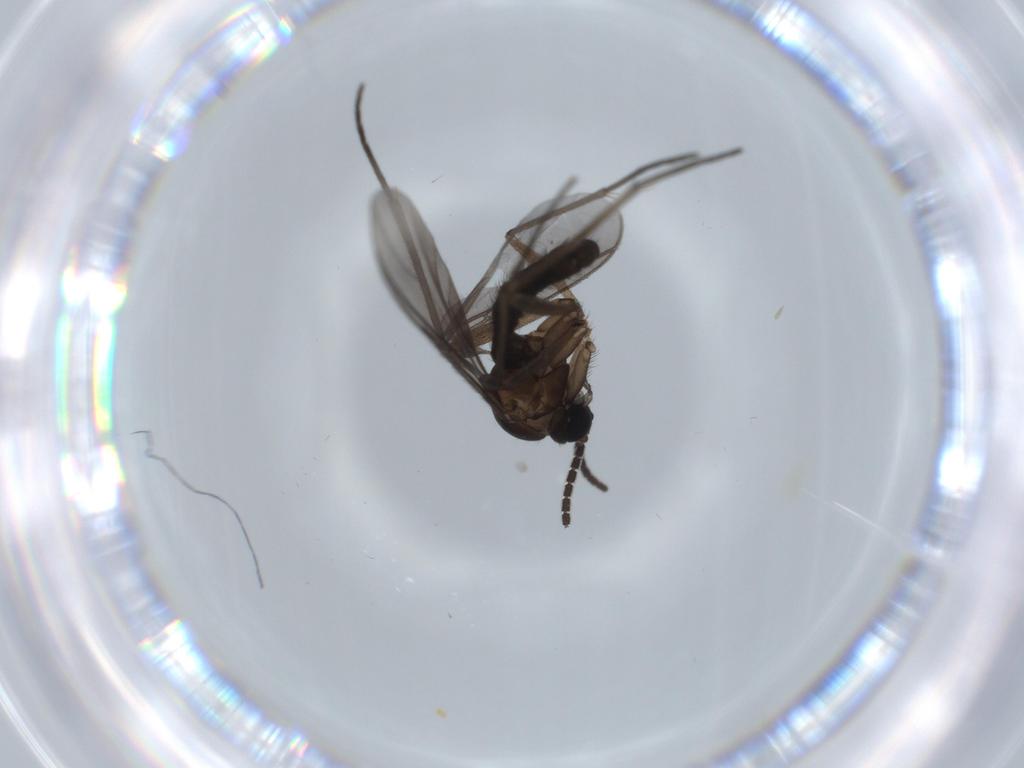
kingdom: Animalia
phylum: Arthropoda
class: Insecta
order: Diptera
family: Sciaridae
